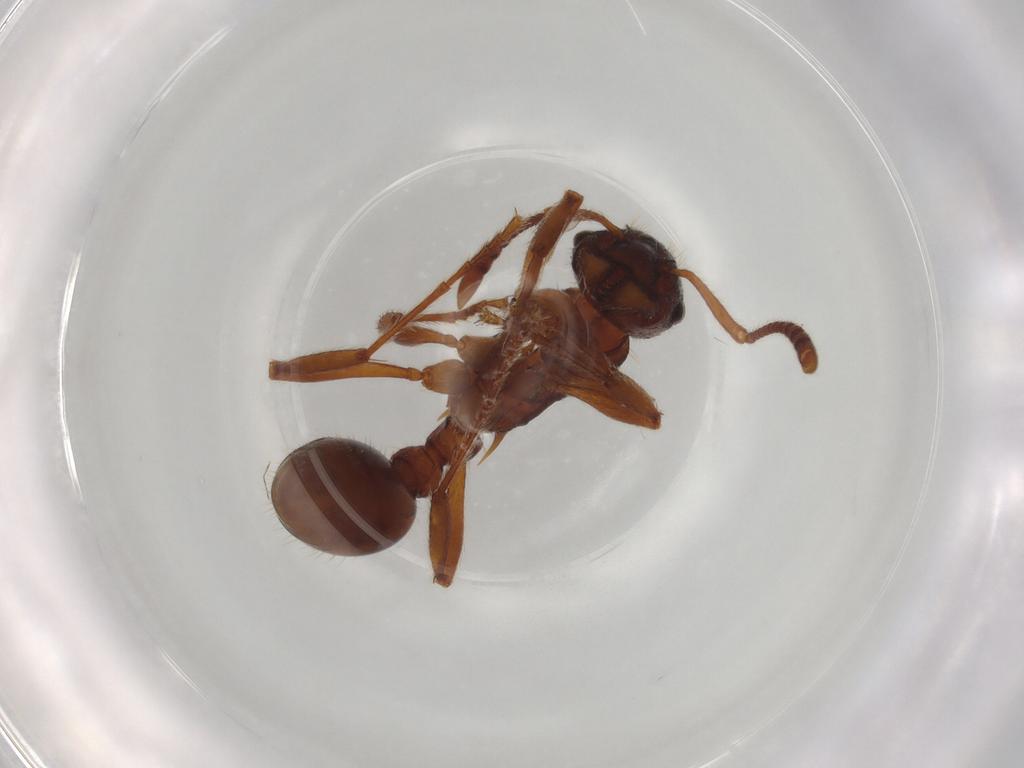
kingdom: Animalia
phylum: Arthropoda
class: Insecta
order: Hymenoptera
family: Formicidae
